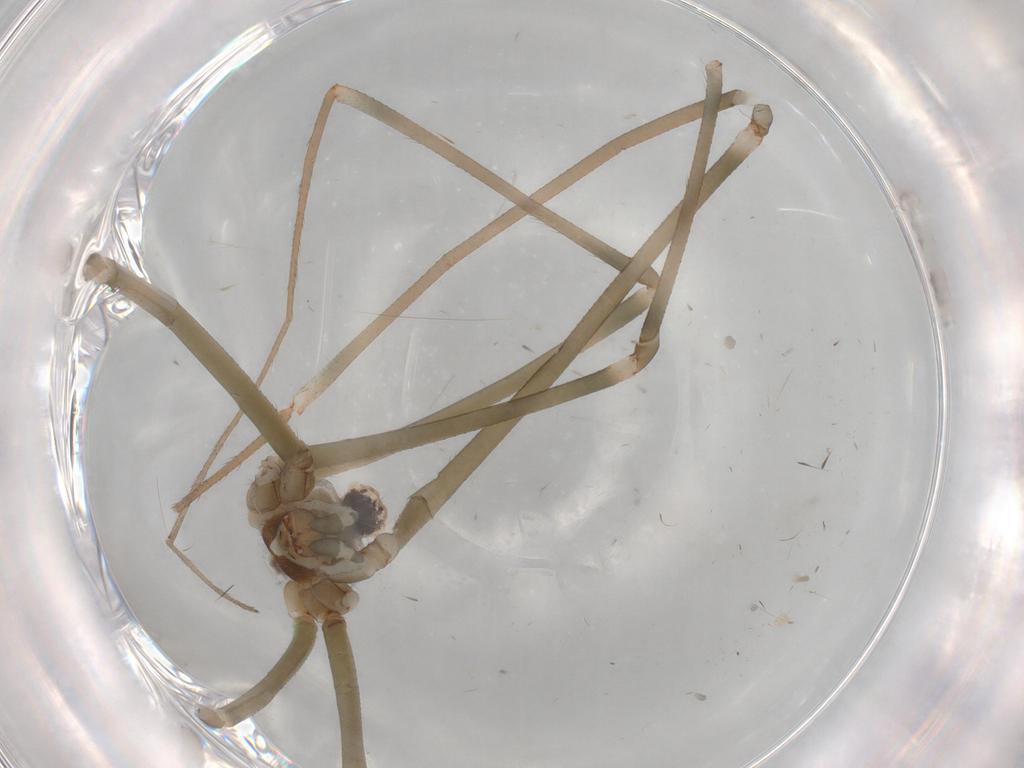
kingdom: Animalia
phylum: Arthropoda
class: Arachnida
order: Araneae
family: Pholcidae
